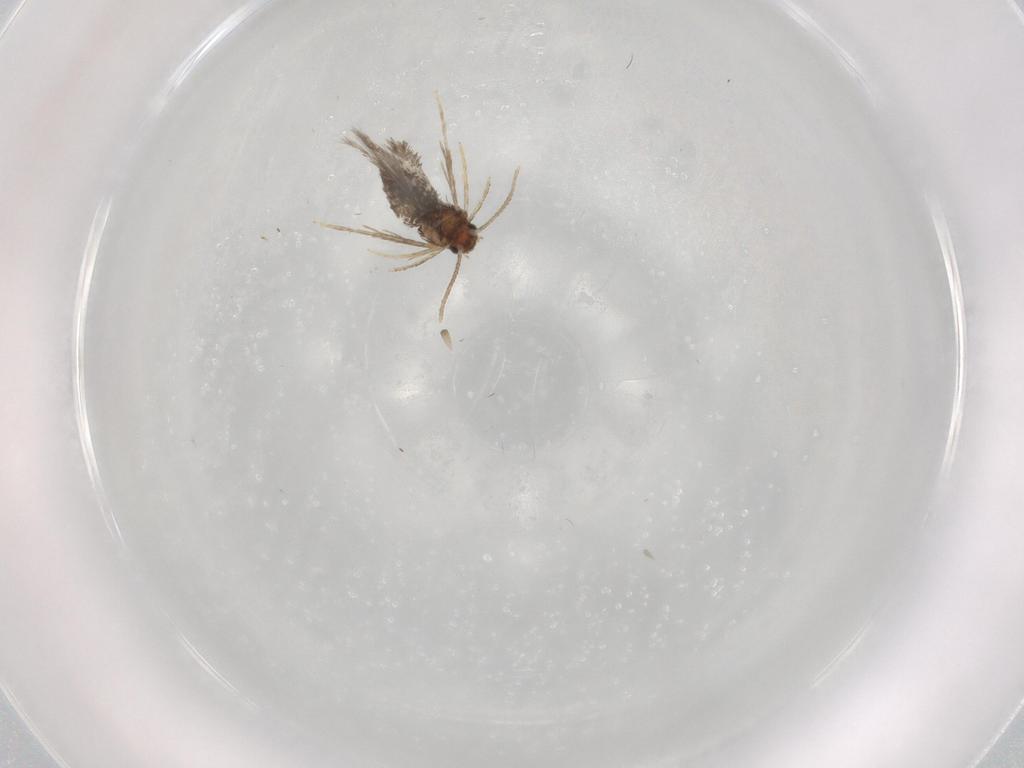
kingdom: Animalia
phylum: Arthropoda
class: Insecta
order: Lepidoptera
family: Nepticulidae
